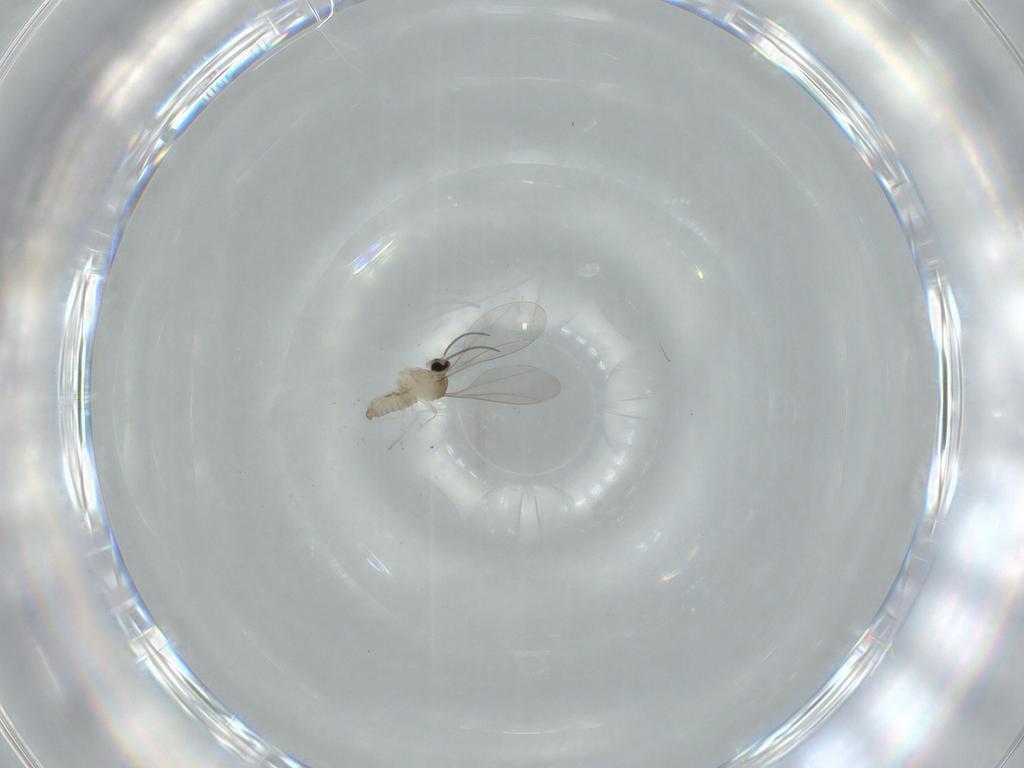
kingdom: Animalia
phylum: Arthropoda
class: Insecta
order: Diptera
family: Cecidomyiidae
